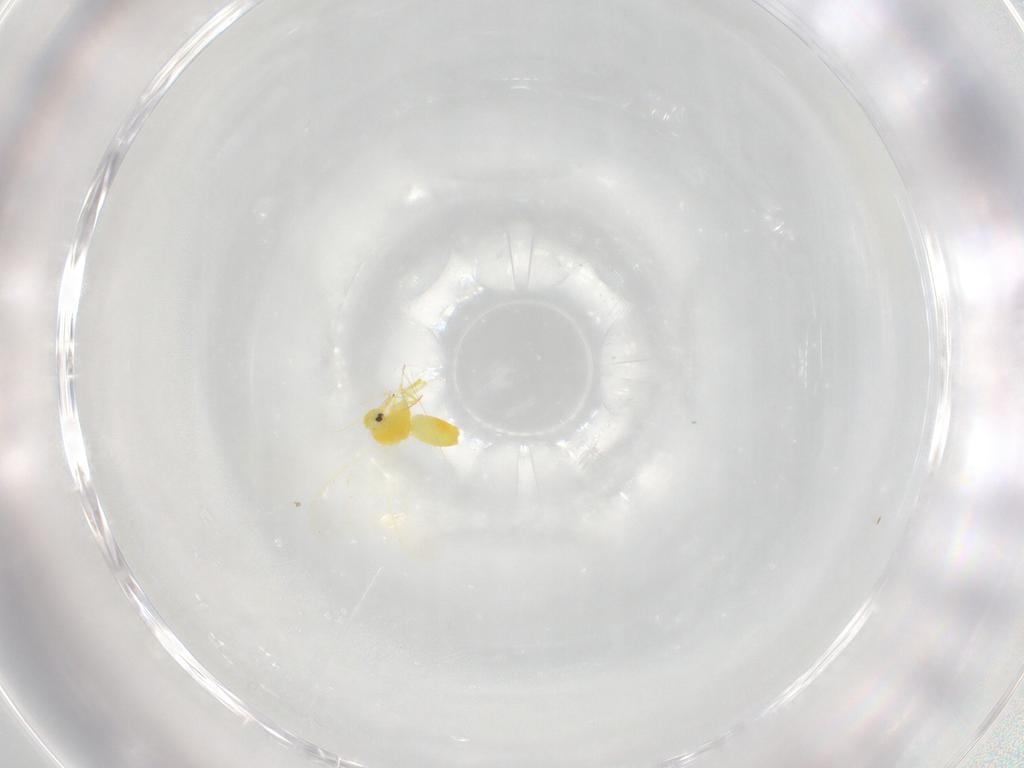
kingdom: Animalia
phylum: Arthropoda
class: Insecta
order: Hemiptera
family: Aleyrodidae
